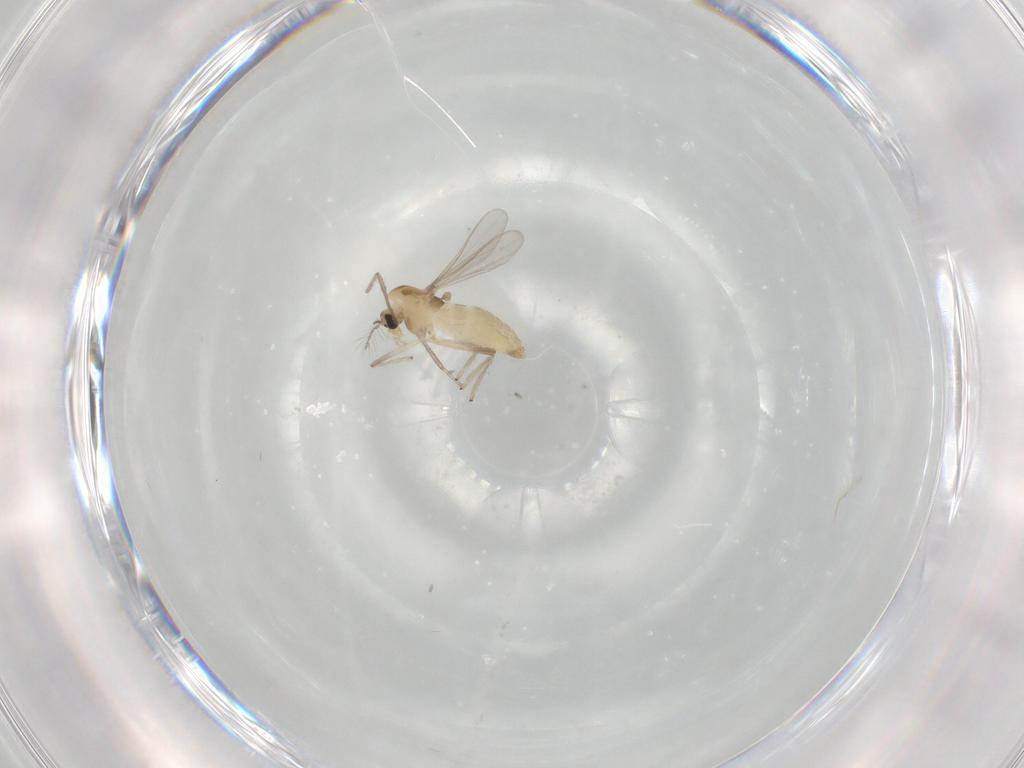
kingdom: Animalia
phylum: Arthropoda
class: Insecta
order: Diptera
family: Chironomidae
